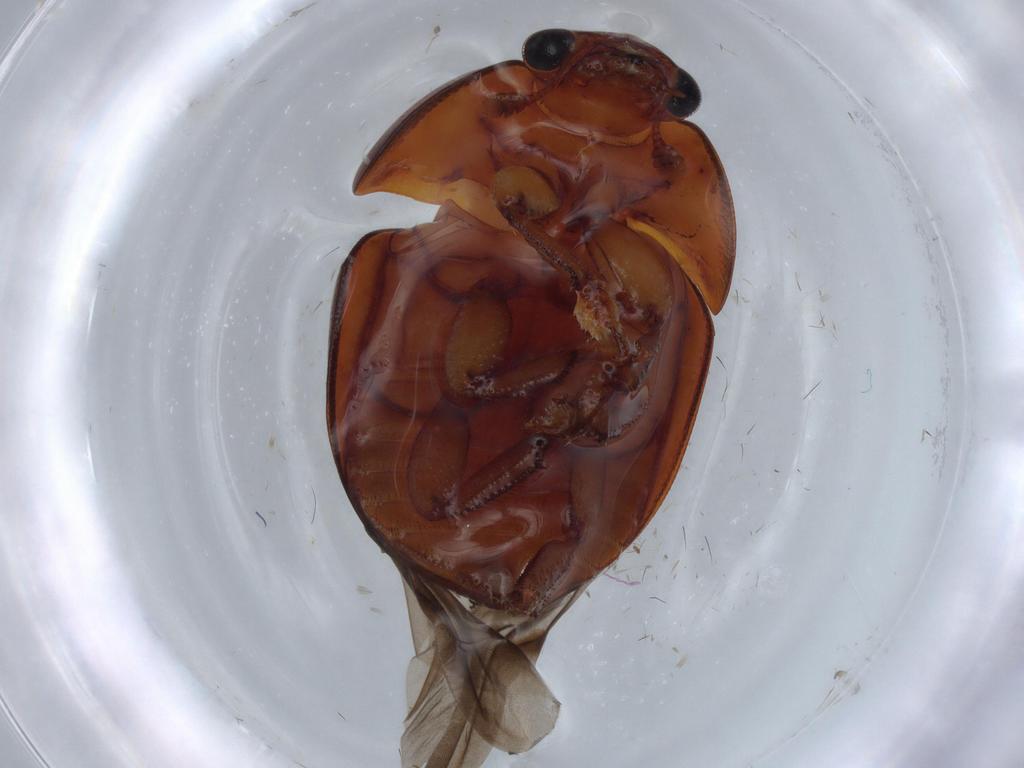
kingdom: Animalia
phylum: Arthropoda
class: Insecta
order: Coleoptera
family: Nitidulidae
